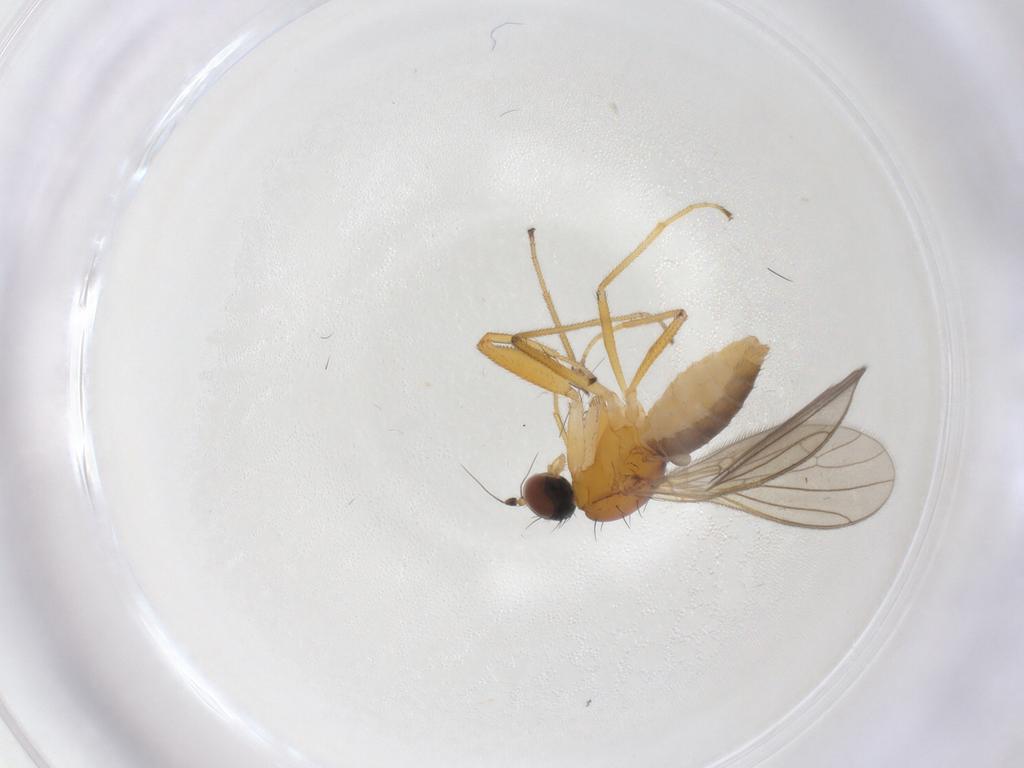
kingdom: Animalia
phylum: Arthropoda
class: Insecta
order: Diptera
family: Empididae
